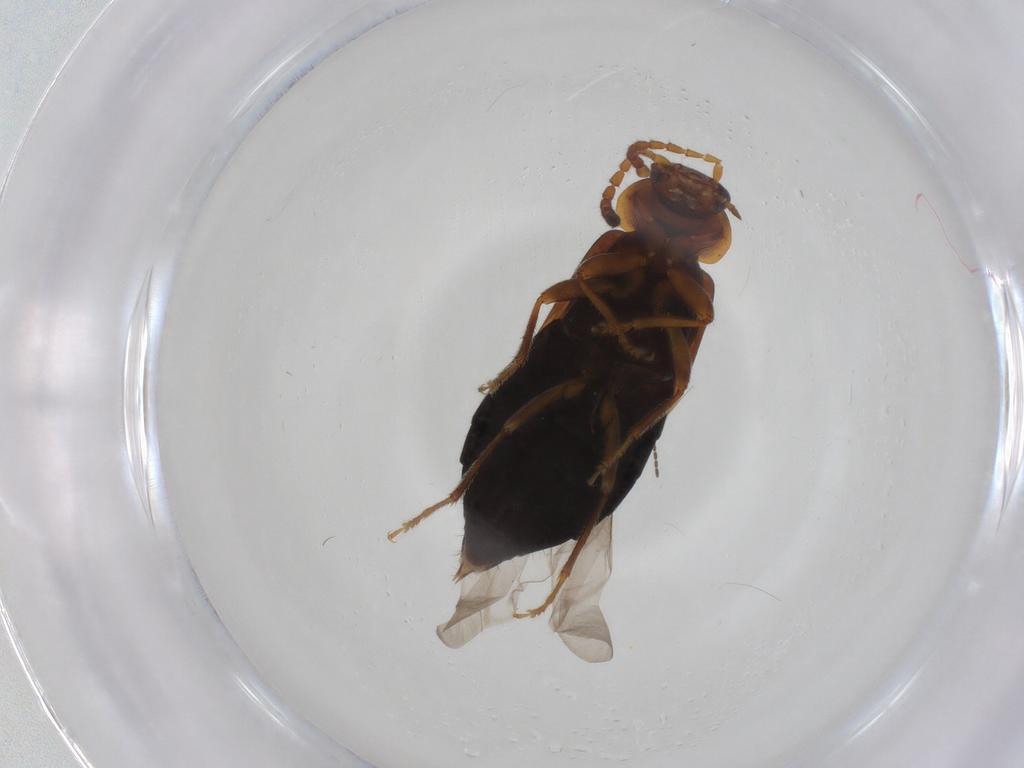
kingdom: Animalia
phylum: Arthropoda
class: Insecta
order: Coleoptera
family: Staphylinidae
